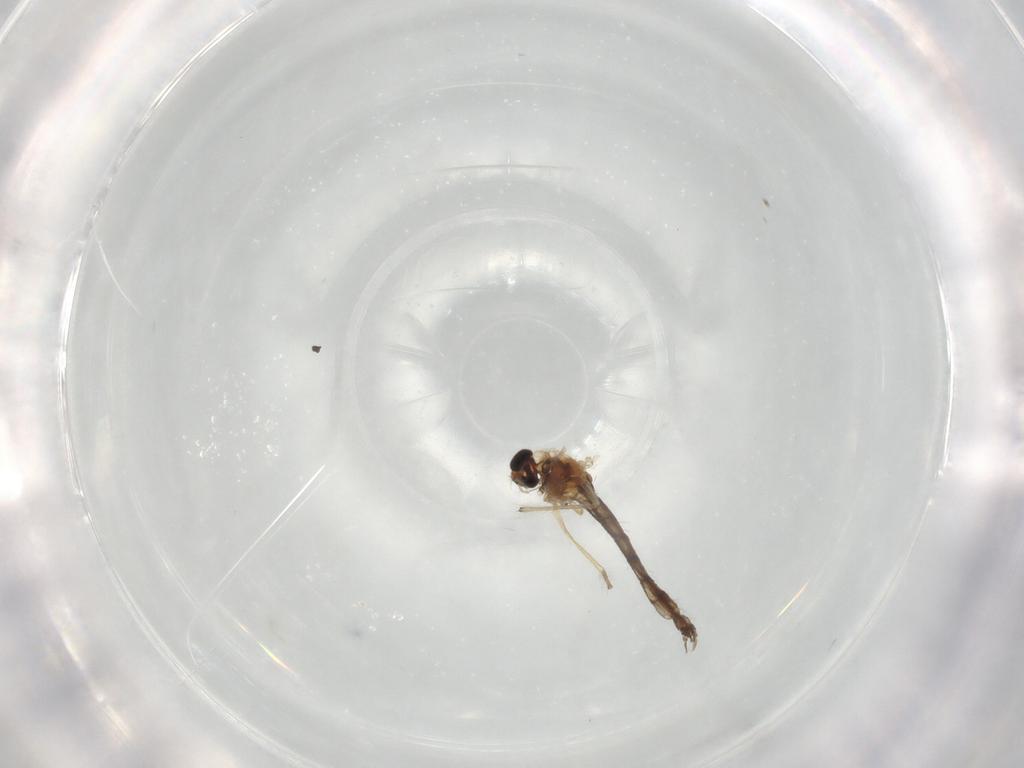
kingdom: Animalia
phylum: Arthropoda
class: Insecta
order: Diptera
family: Chironomidae
